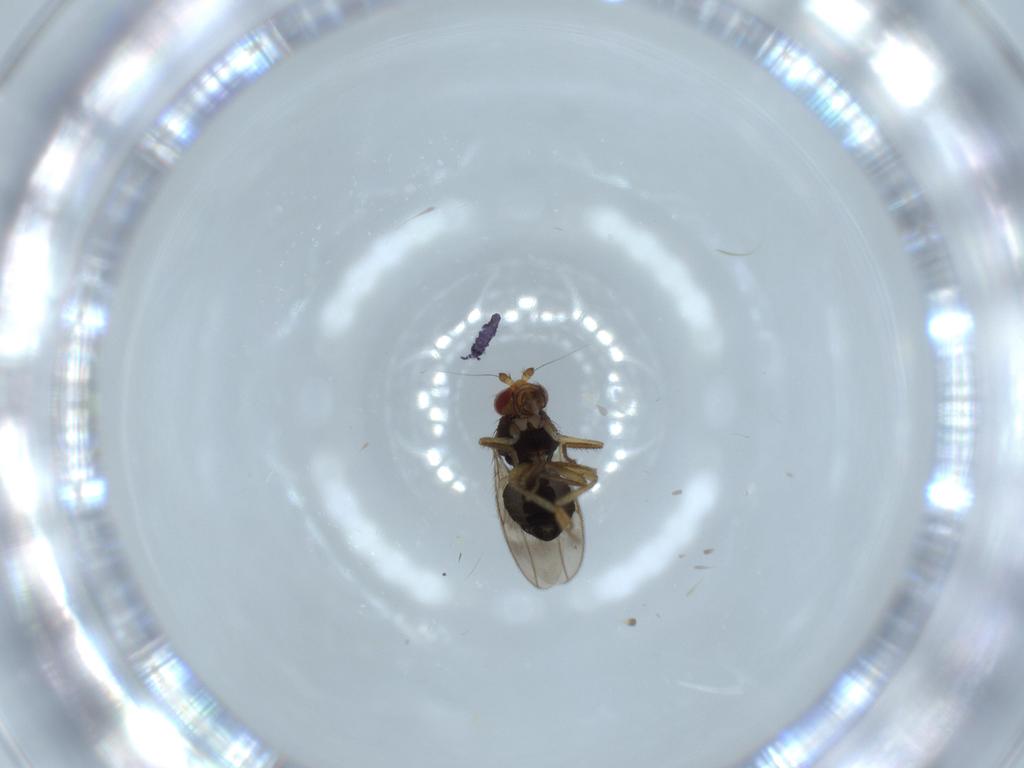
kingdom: Animalia
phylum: Arthropoda
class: Collembola
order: Poduromorpha
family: Neanuridae
